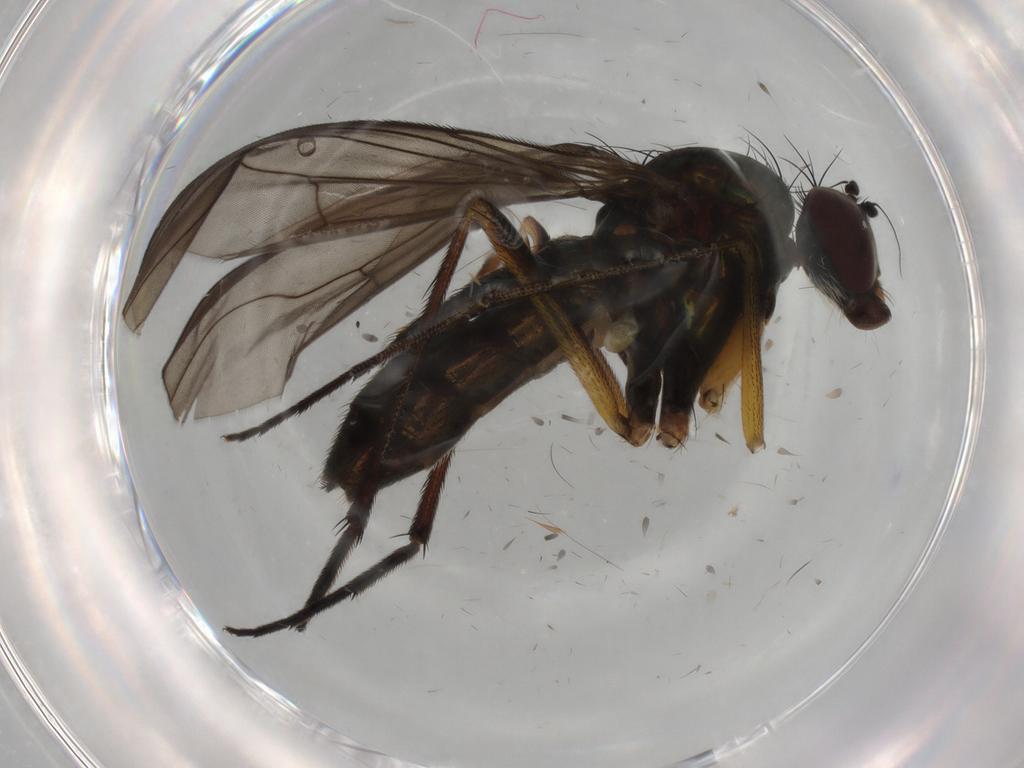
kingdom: Animalia
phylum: Arthropoda
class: Insecta
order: Diptera
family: Dolichopodidae
